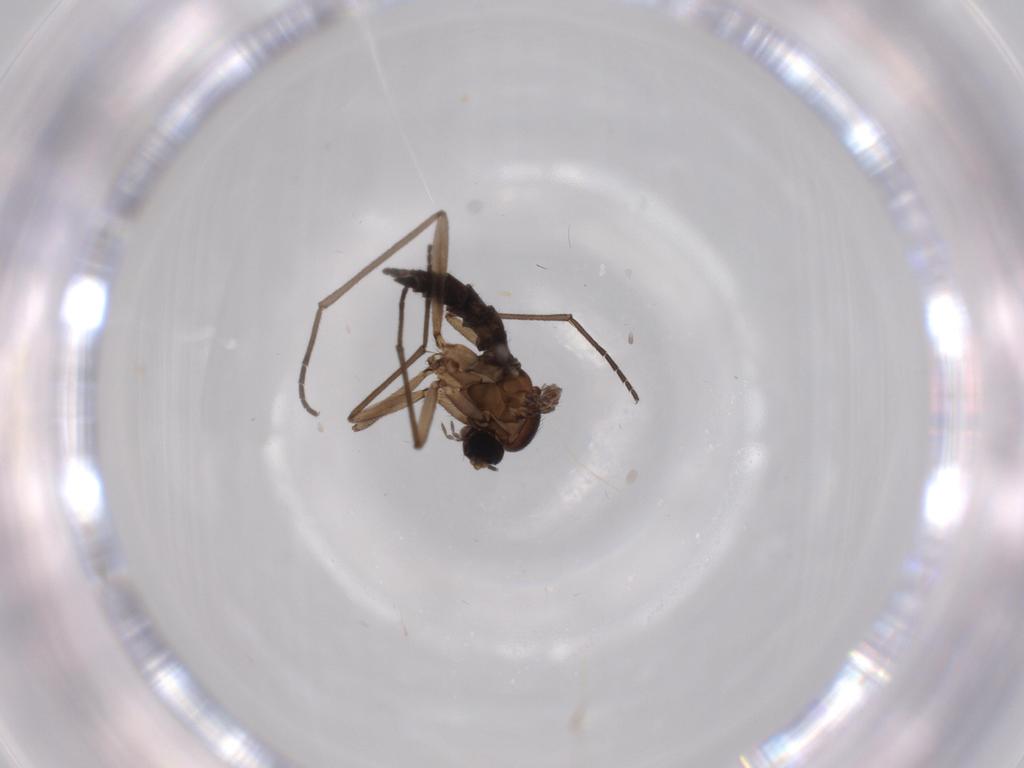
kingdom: Animalia
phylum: Arthropoda
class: Insecta
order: Diptera
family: Sciaridae
